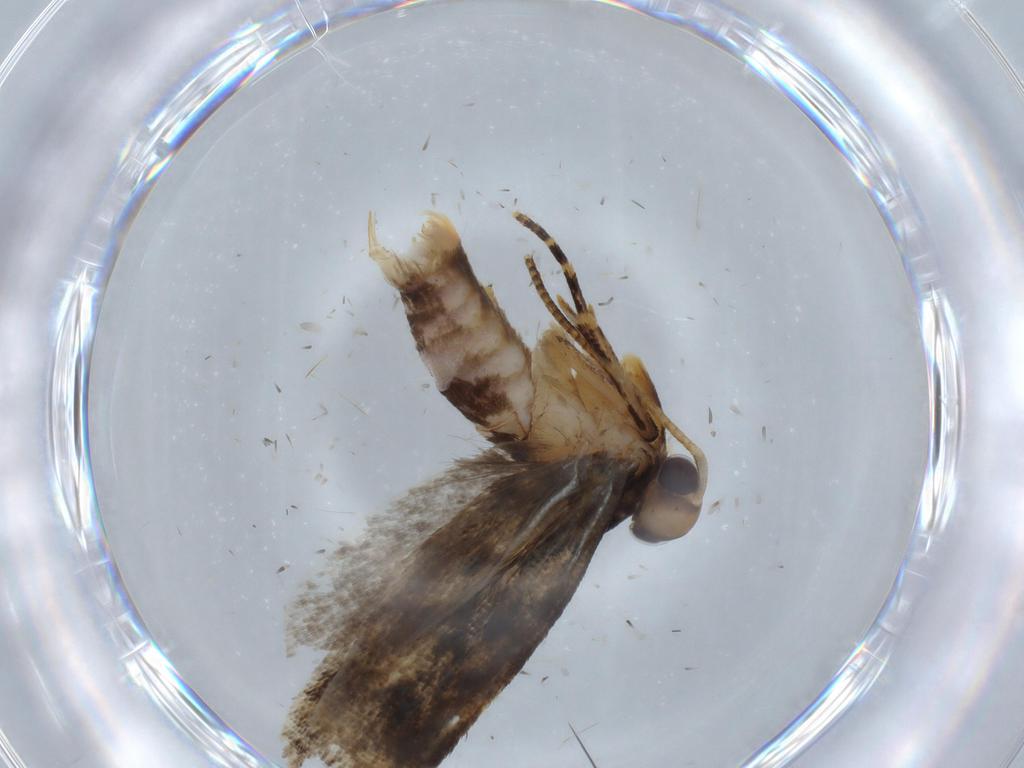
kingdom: Animalia
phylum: Arthropoda
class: Insecta
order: Lepidoptera
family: Gelechiidae
